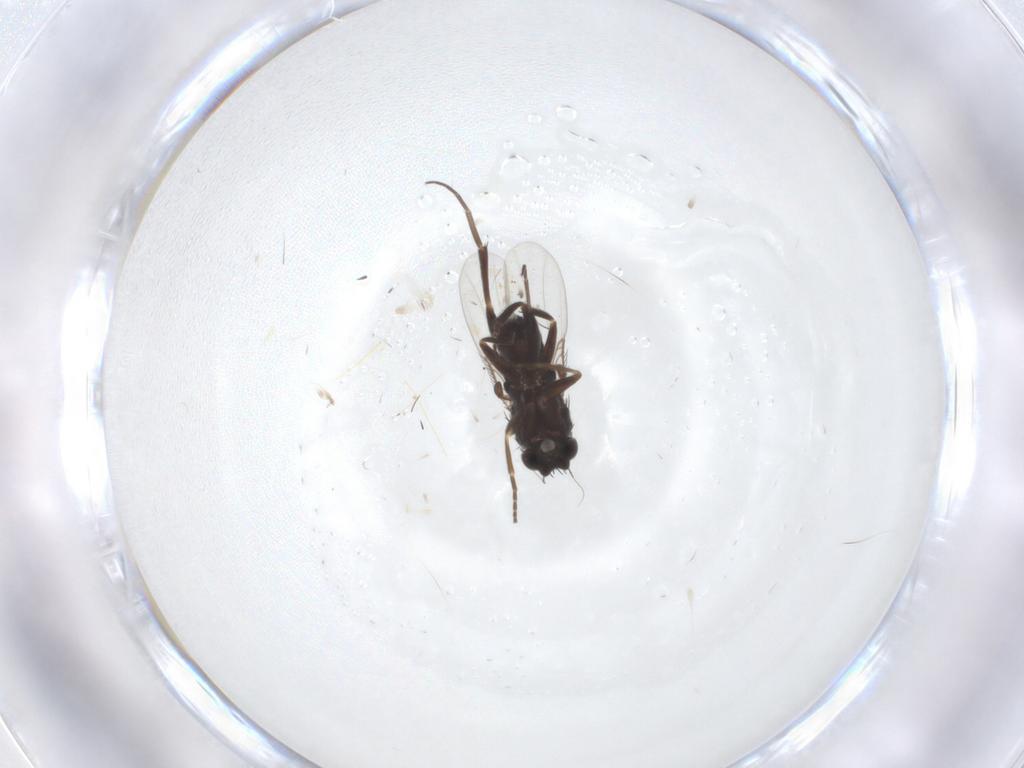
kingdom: Animalia
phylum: Arthropoda
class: Insecta
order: Diptera
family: Phoridae
